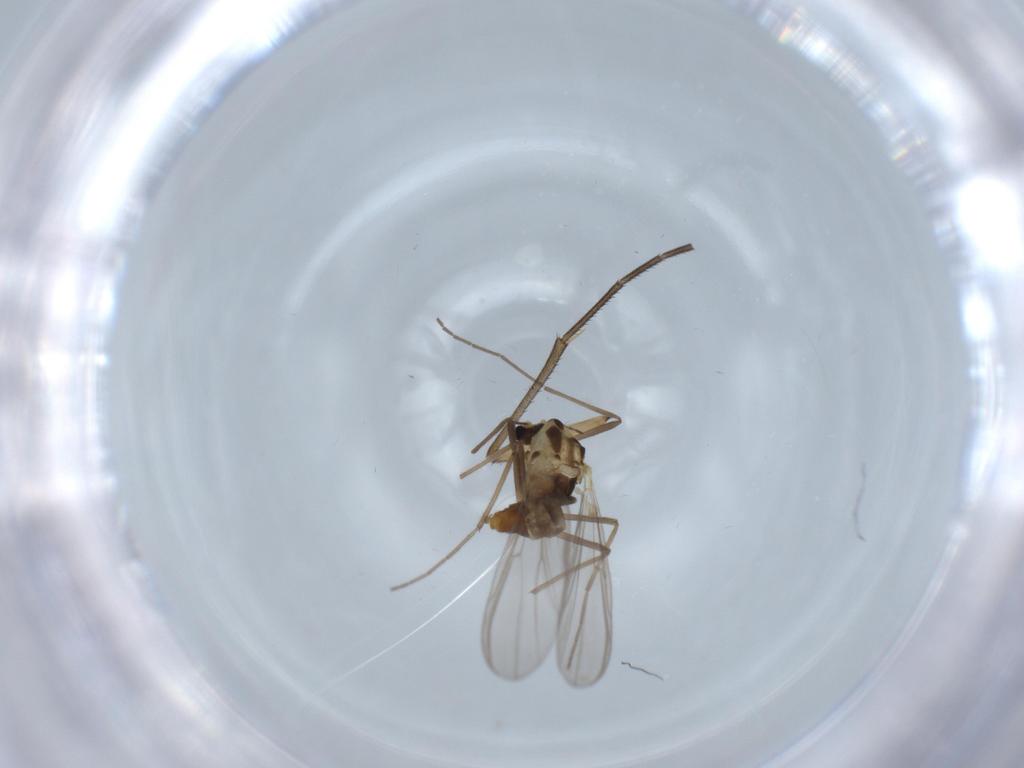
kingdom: Animalia
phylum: Arthropoda
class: Insecta
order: Diptera
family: Chironomidae
